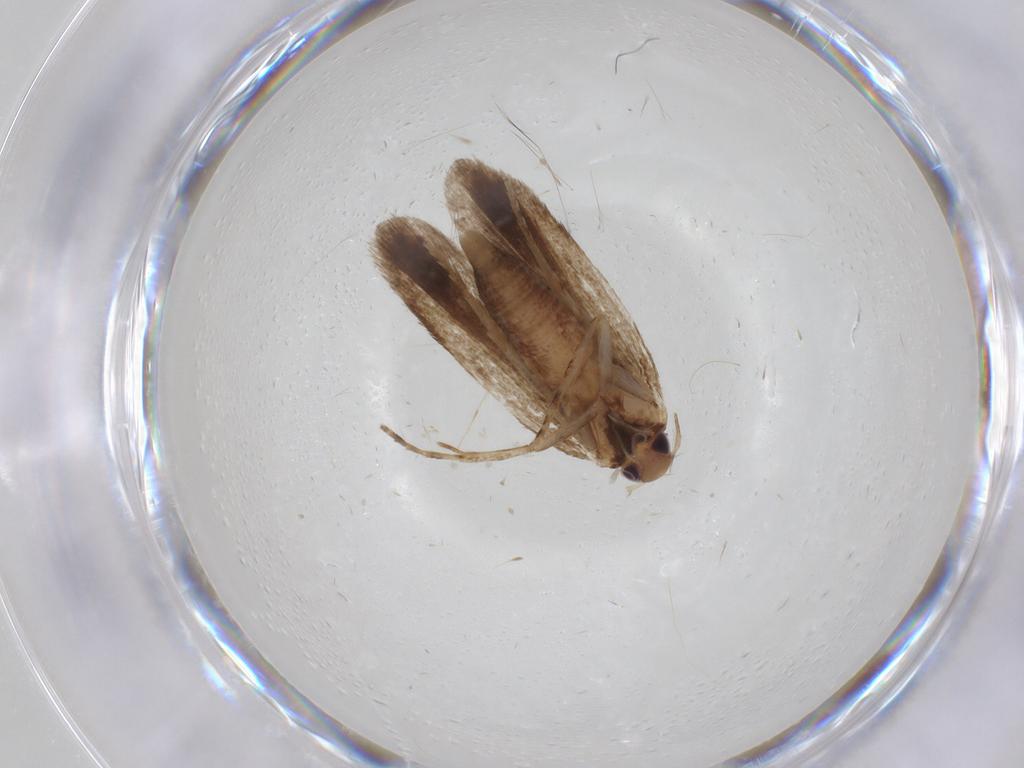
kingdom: Animalia
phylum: Arthropoda
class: Insecta
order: Lepidoptera
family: Gelechiidae
